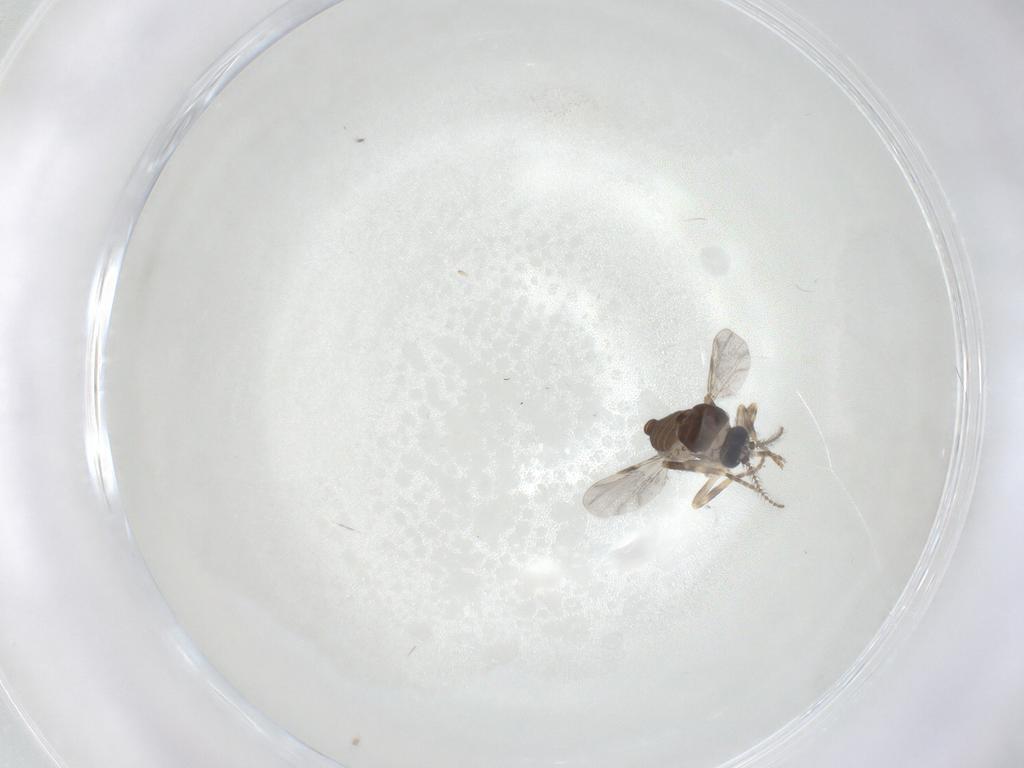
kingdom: Animalia
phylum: Arthropoda
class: Insecta
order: Diptera
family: Ceratopogonidae
